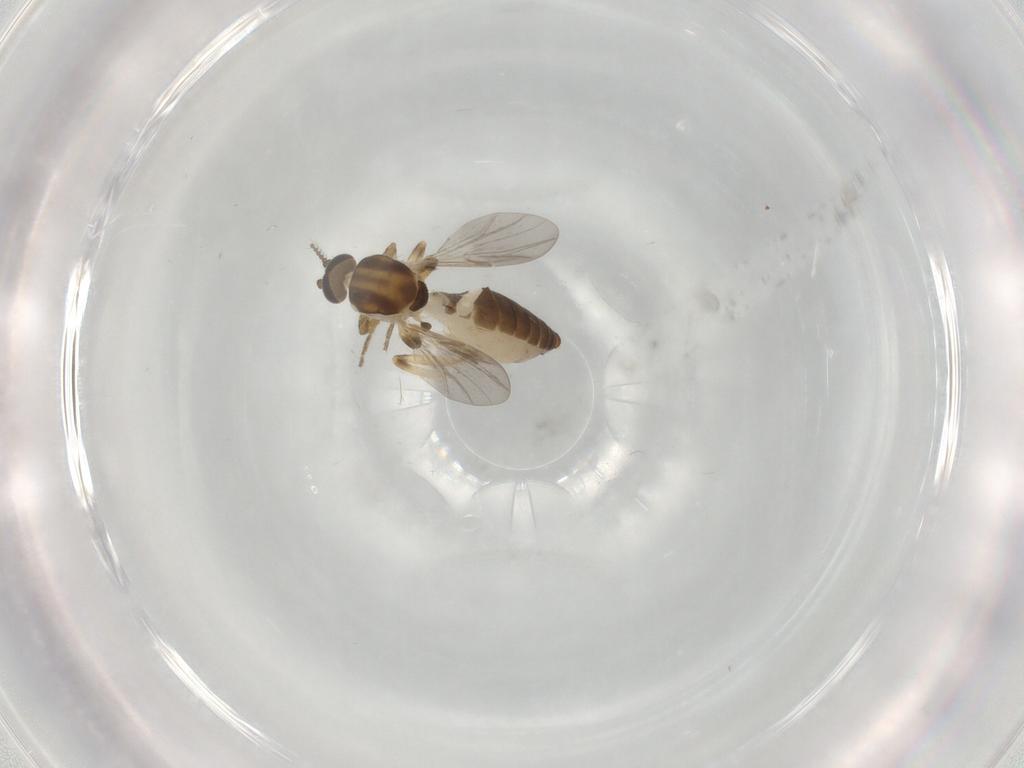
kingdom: Animalia
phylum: Arthropoda
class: Insecta
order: Diptera
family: Ceratopogonidae
